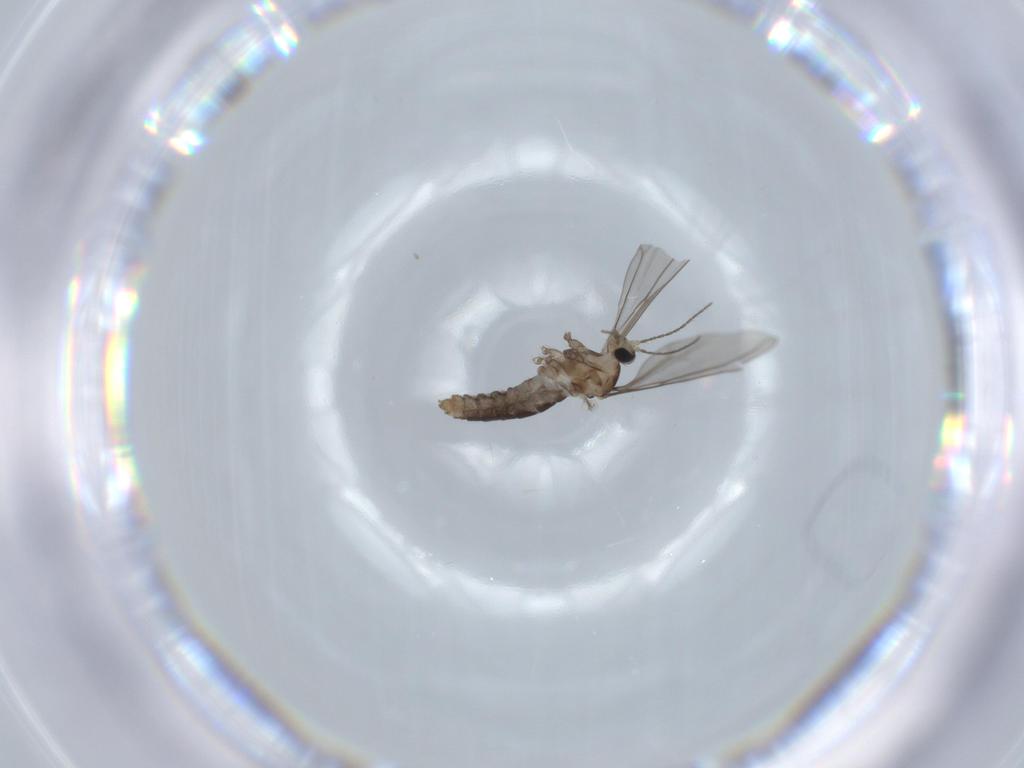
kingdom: Animalia
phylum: Arthropoda
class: Insecta
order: Diptera
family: Cecidomyiidae
